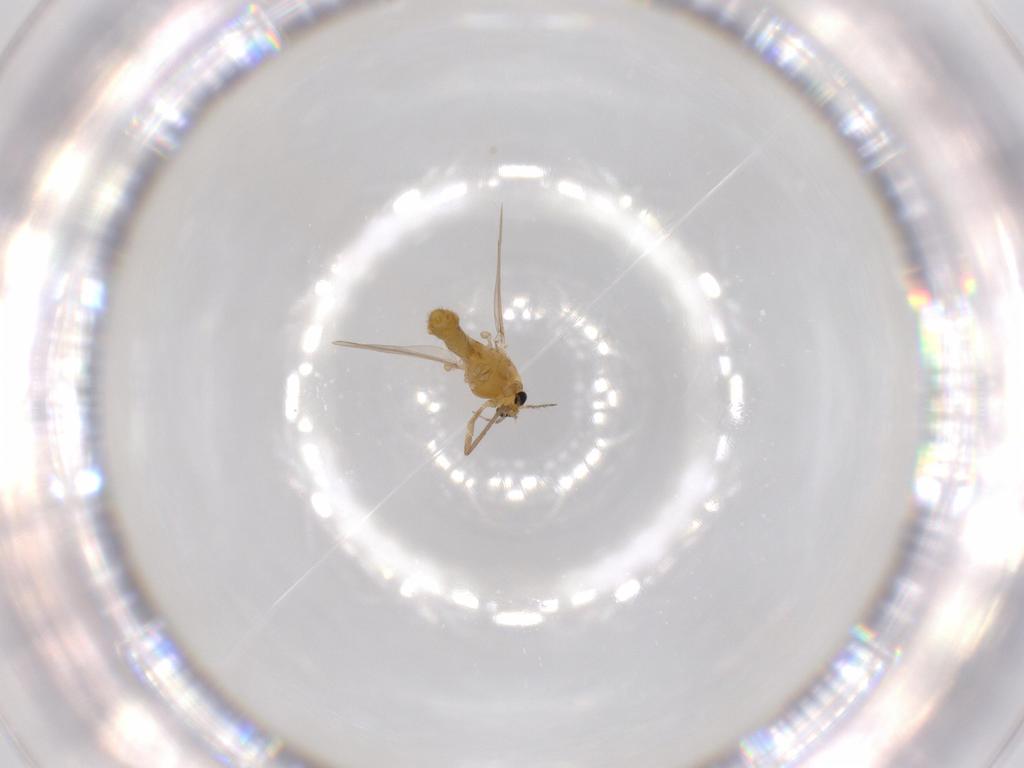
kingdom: Animalia
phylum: Arthropoda
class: Insecta
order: Diptera
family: Chironomidae
